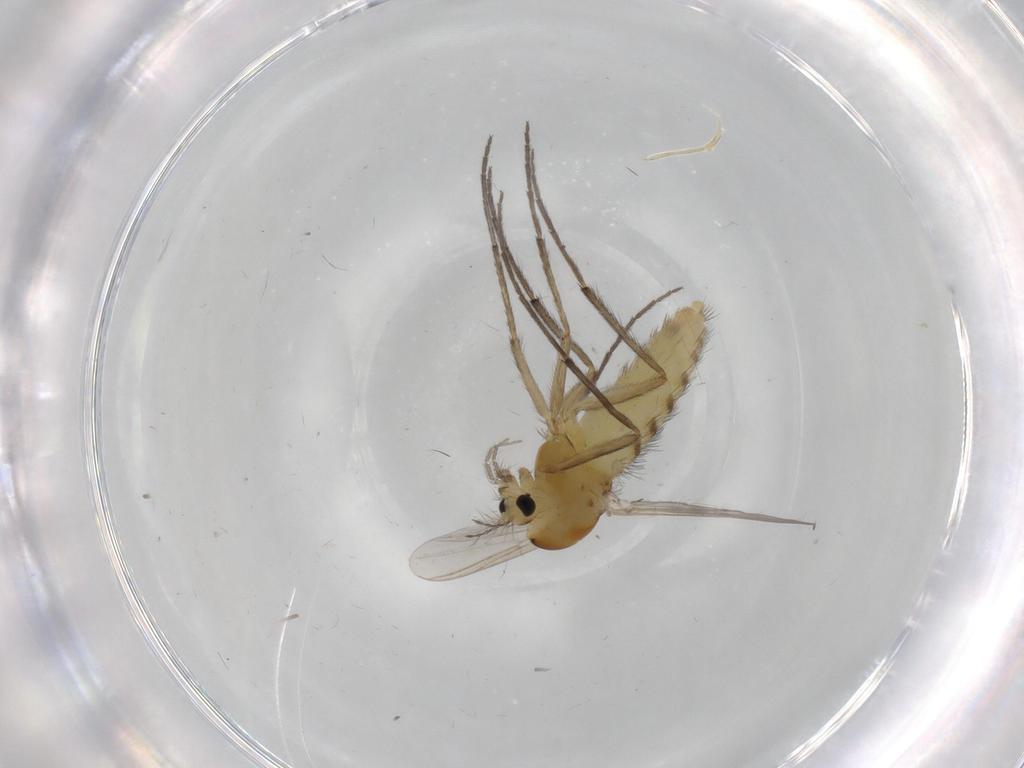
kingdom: Animalia
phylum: Arthropoda
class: Insecta
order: Diptera
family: Chironomidae
